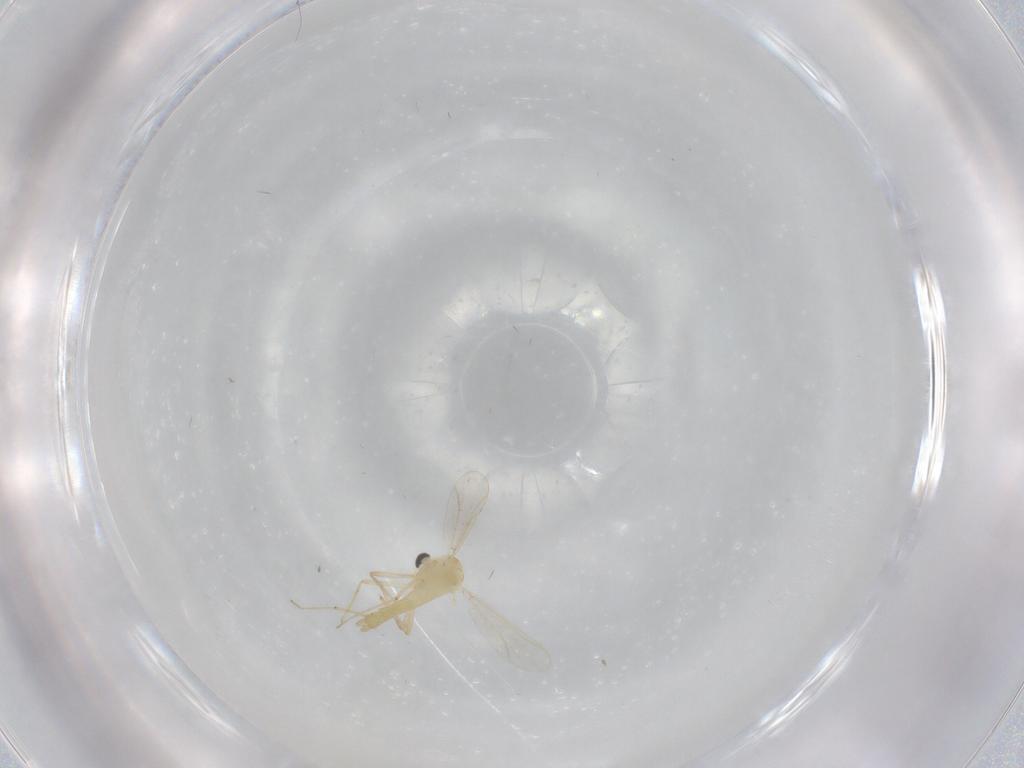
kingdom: Animalia
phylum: Arthropoda
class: Insecta
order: Diptera
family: Chironomidae
